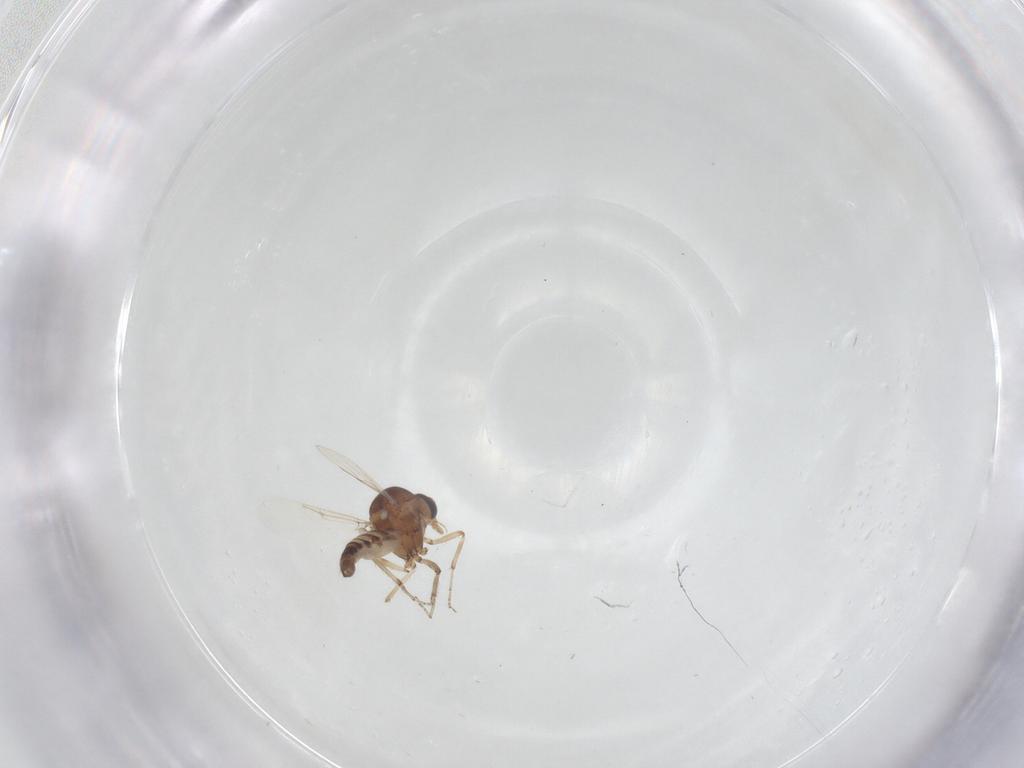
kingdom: Animalia
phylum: Arthropoda
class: Insecta
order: Diptera
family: Ceratopogonidae
